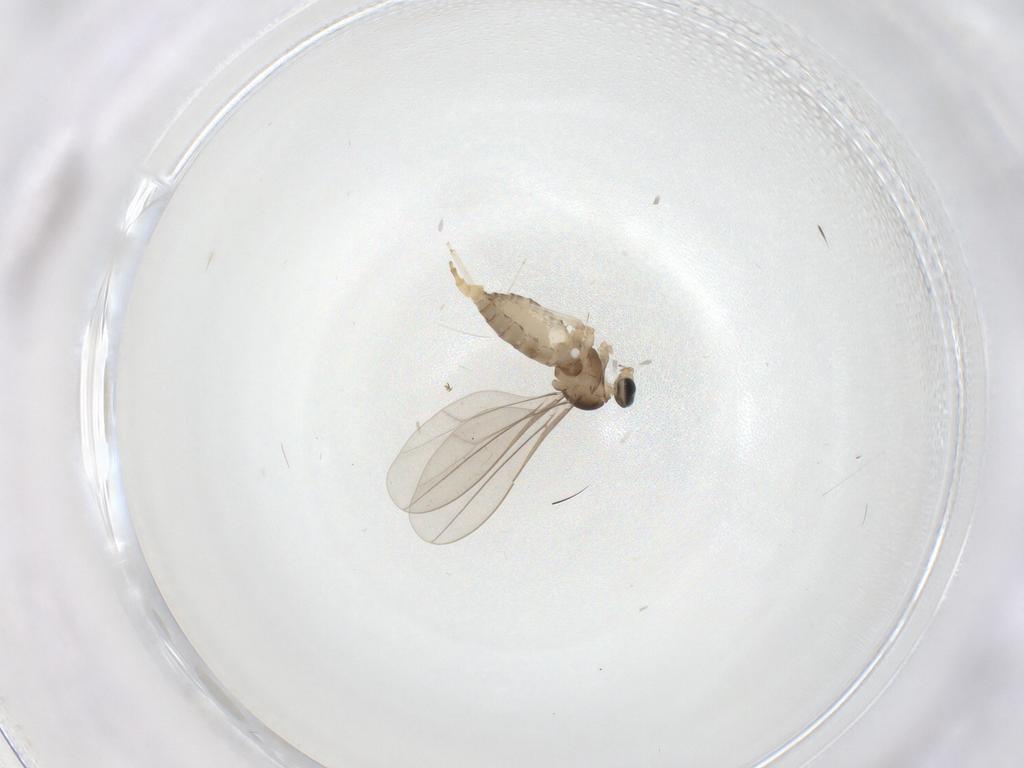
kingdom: Animalia
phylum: Arthropoda
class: Insecta
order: Diptera
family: Cecidomyiidae
